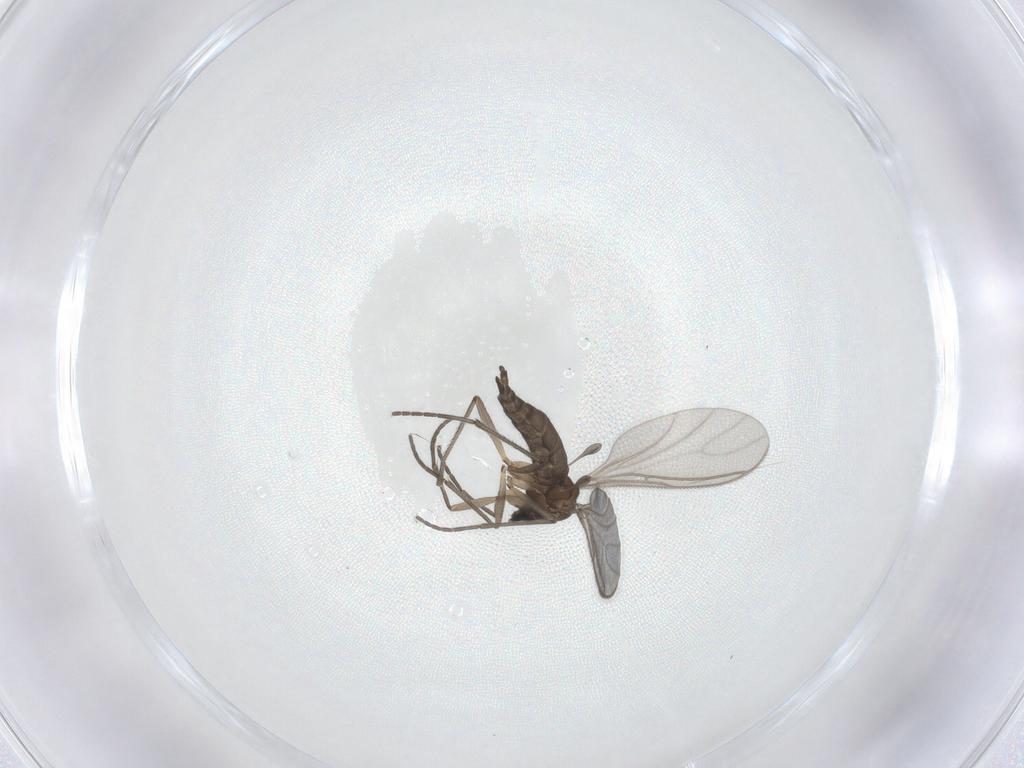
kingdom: Animalia
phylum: Arthropoda
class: Insecta
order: Diptera
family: Sciaridae
